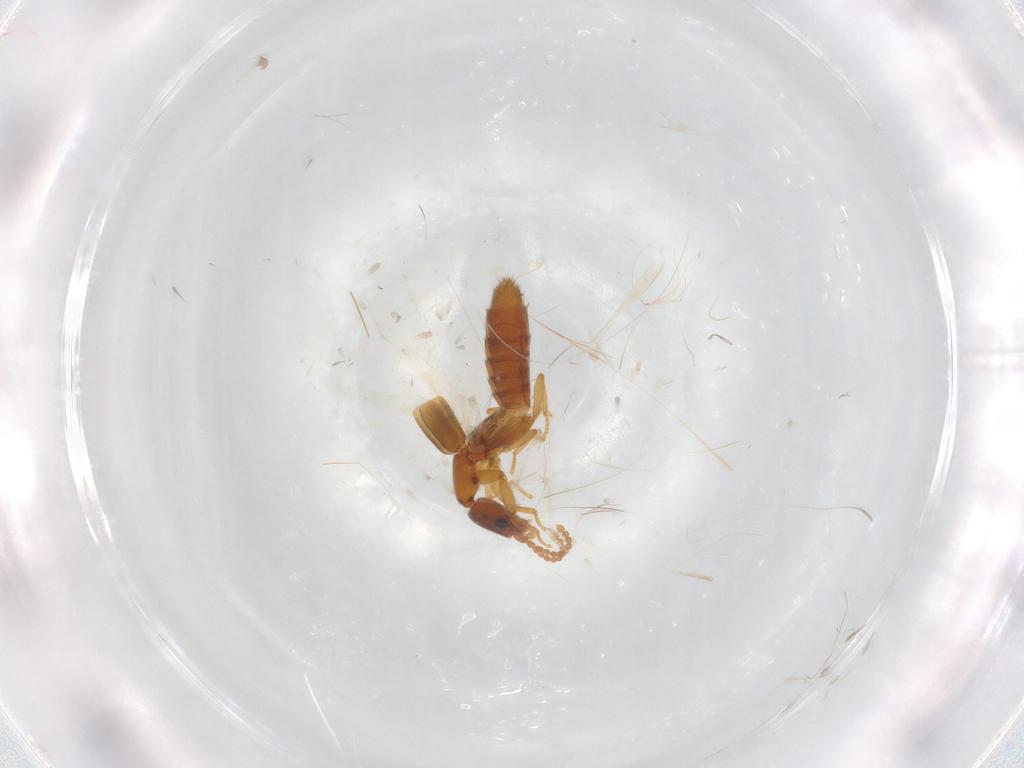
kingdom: Animalia
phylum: Arthropoda
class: Insecta
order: Coleoptera
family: Staphylinidae
